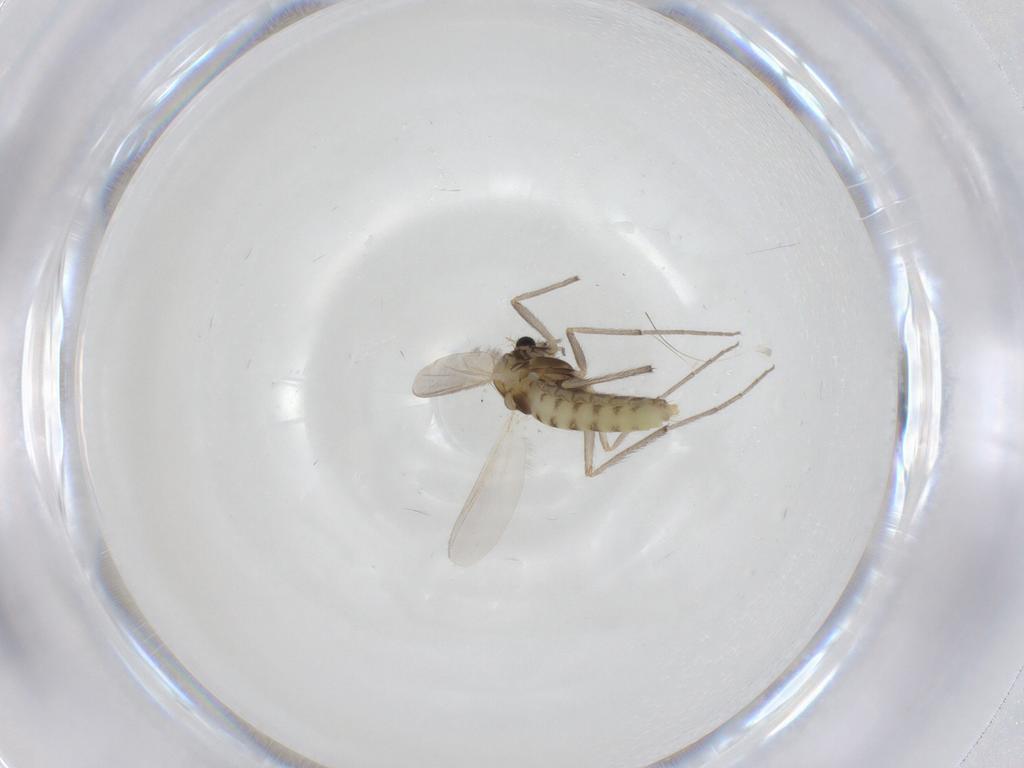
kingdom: Animalia
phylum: Arthropoda
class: Insecta
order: Diptera
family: Chironomidae
